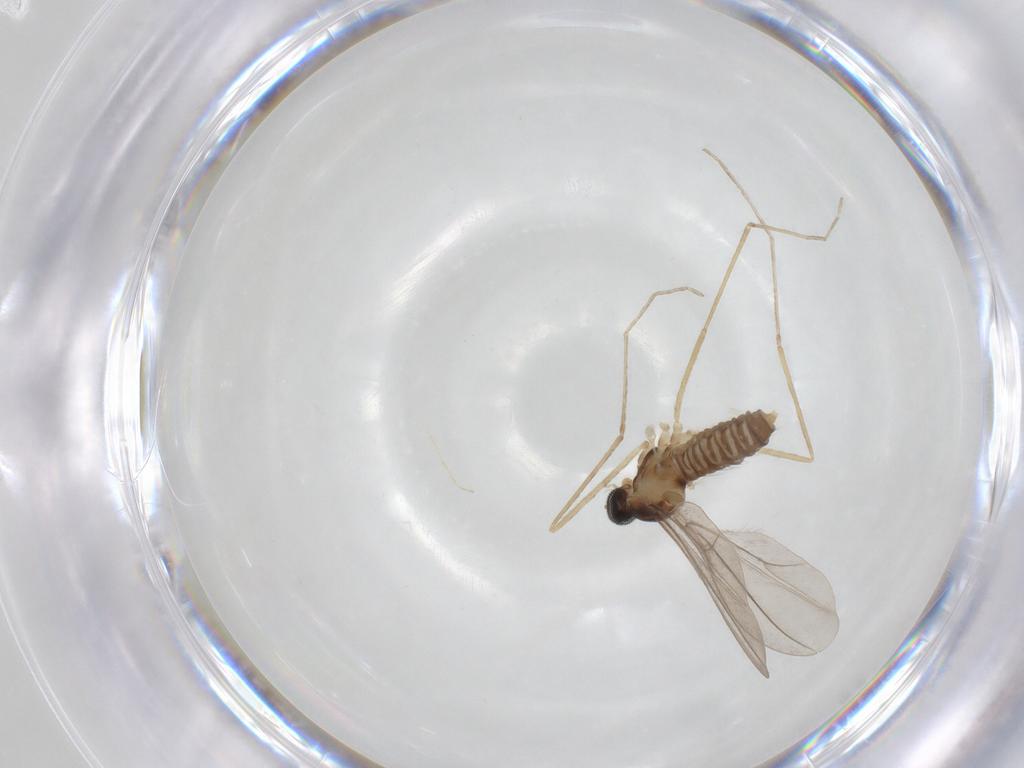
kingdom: Animalia
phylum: Arthropoda
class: Insecta
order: Diptera
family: Cecidomyiidae
